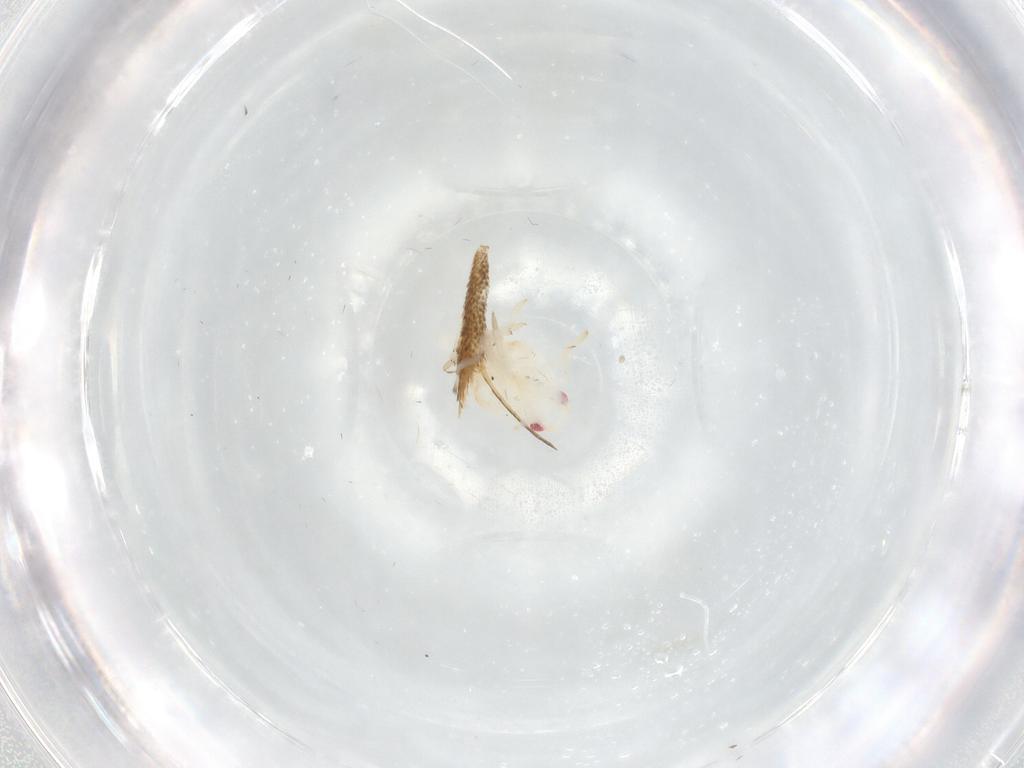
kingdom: Animalia
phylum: Arthropoda
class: Insecta
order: Hemiptera
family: Flatidae
